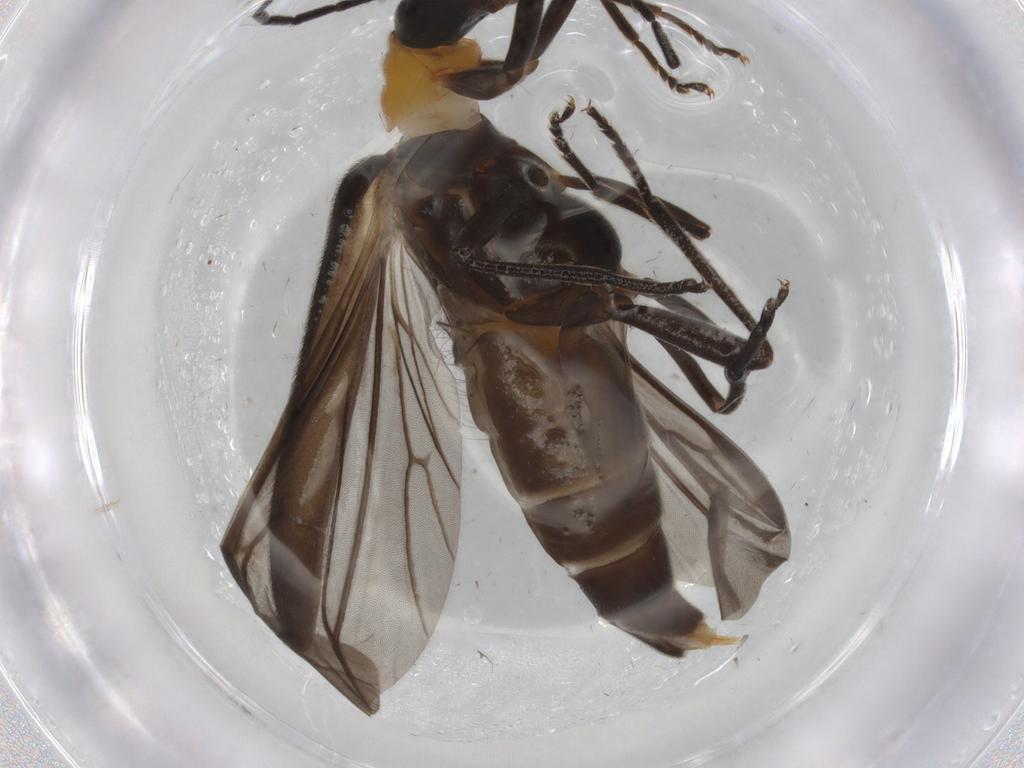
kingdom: Animalia
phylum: Arthropoda
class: Insecta
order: Coleoptera
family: Oedemeridae
